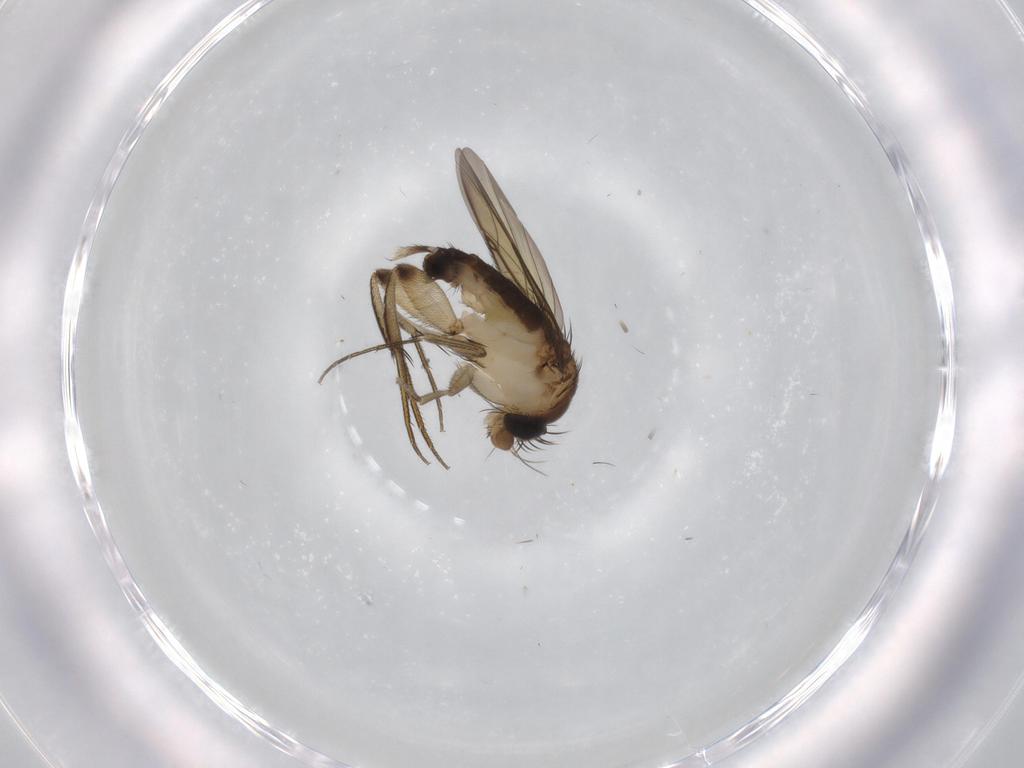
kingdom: Animalia
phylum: Arthropoda
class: Insecta
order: Diptera
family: Phoridae
